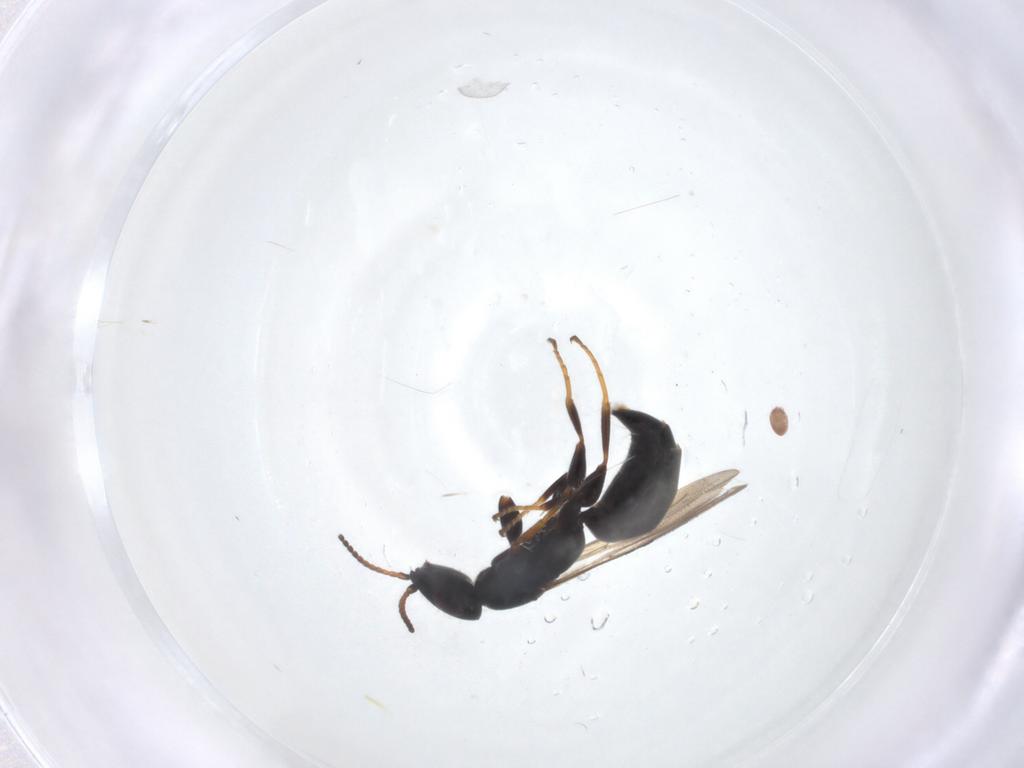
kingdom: Animalia
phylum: Arthropoda
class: Insecta
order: Hymenoptera
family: Bethylidae
